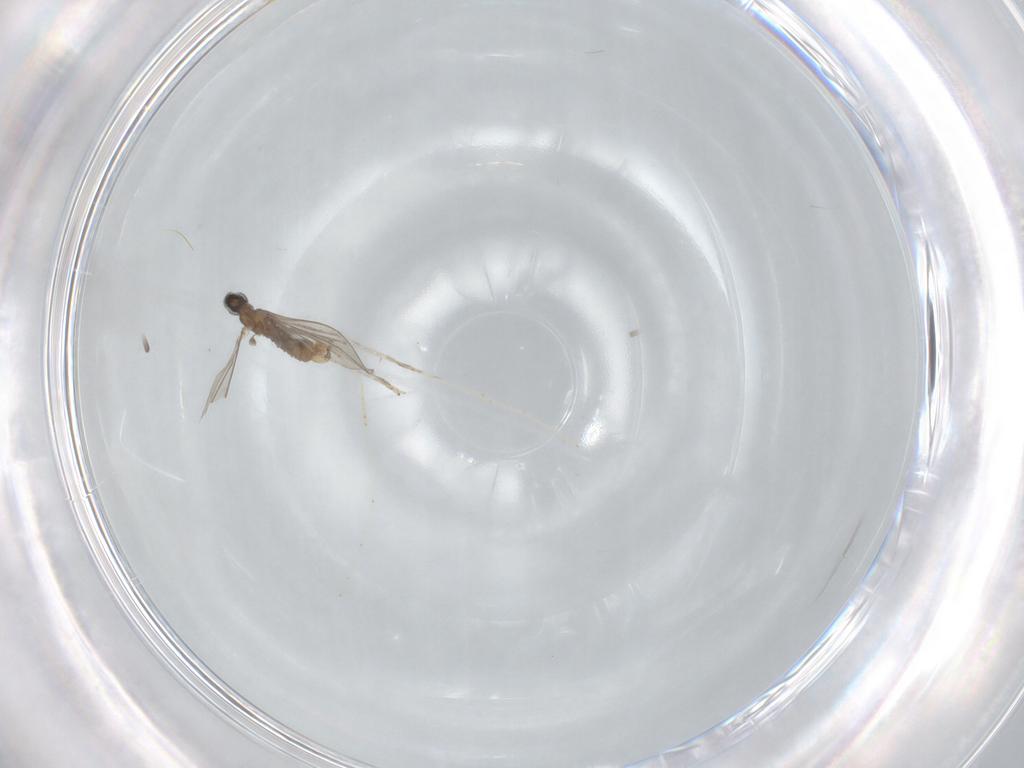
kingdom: Animalia
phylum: Arthropoda
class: Insecta
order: Diptera
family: Cecidomyiidae
